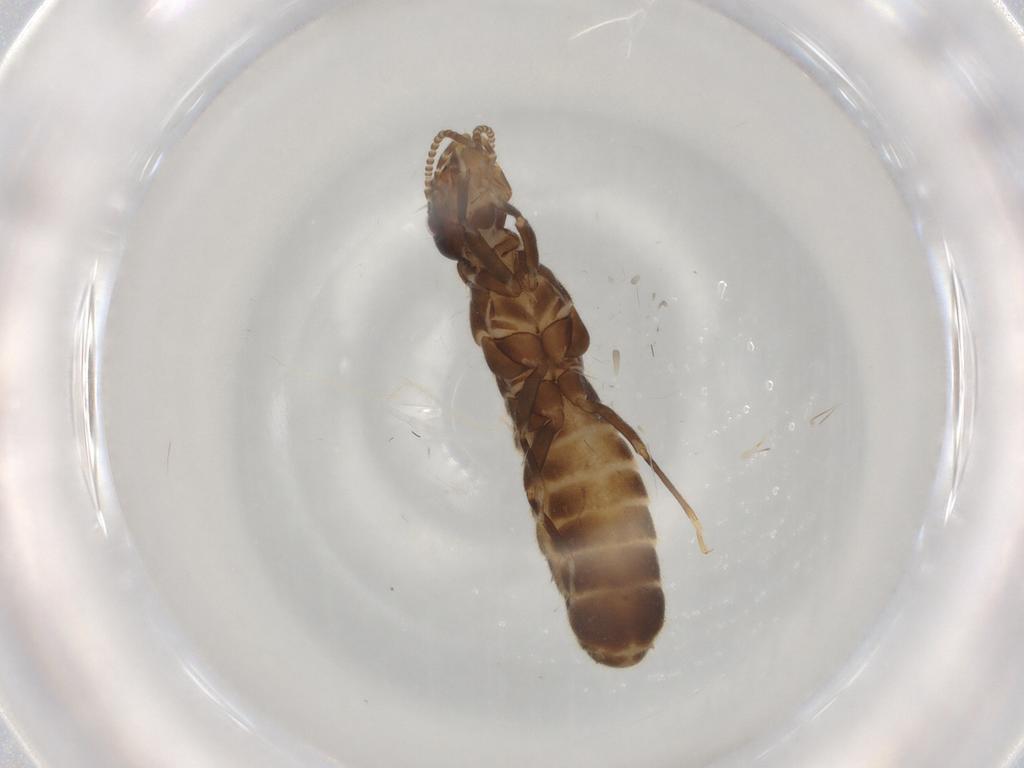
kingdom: Animalia
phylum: Arthropoda
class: Insecta
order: Blattodea
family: Termitidae
